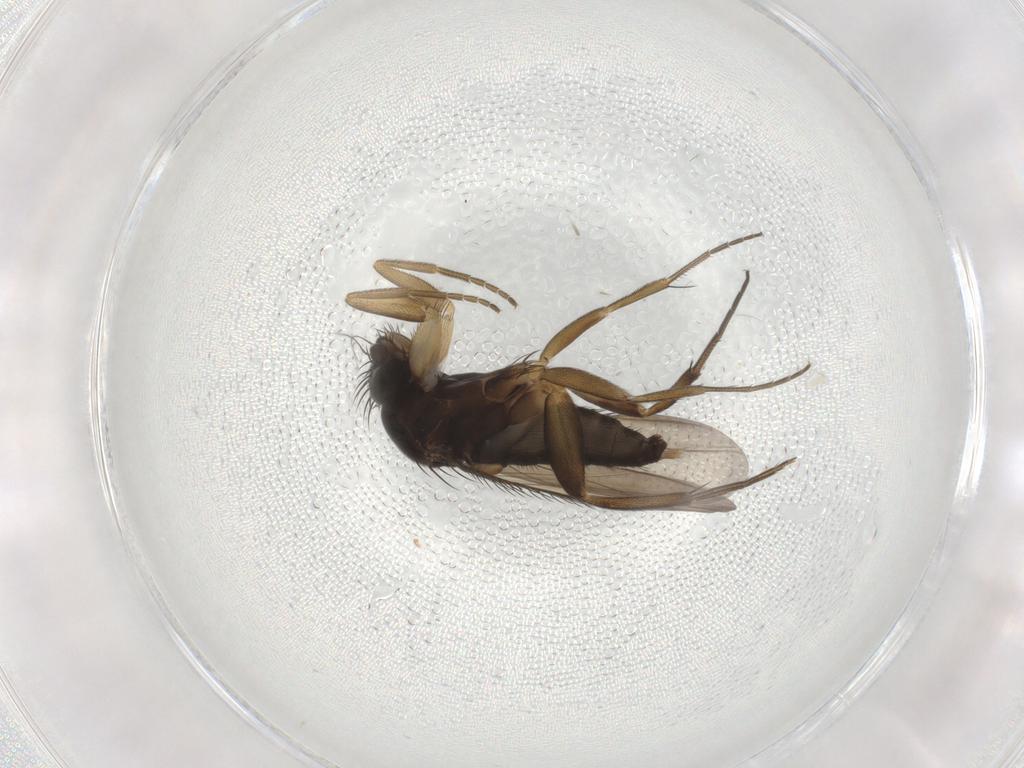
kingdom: Animalia
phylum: Arthropoda
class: Insecta
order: Diptera
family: Phoridae
